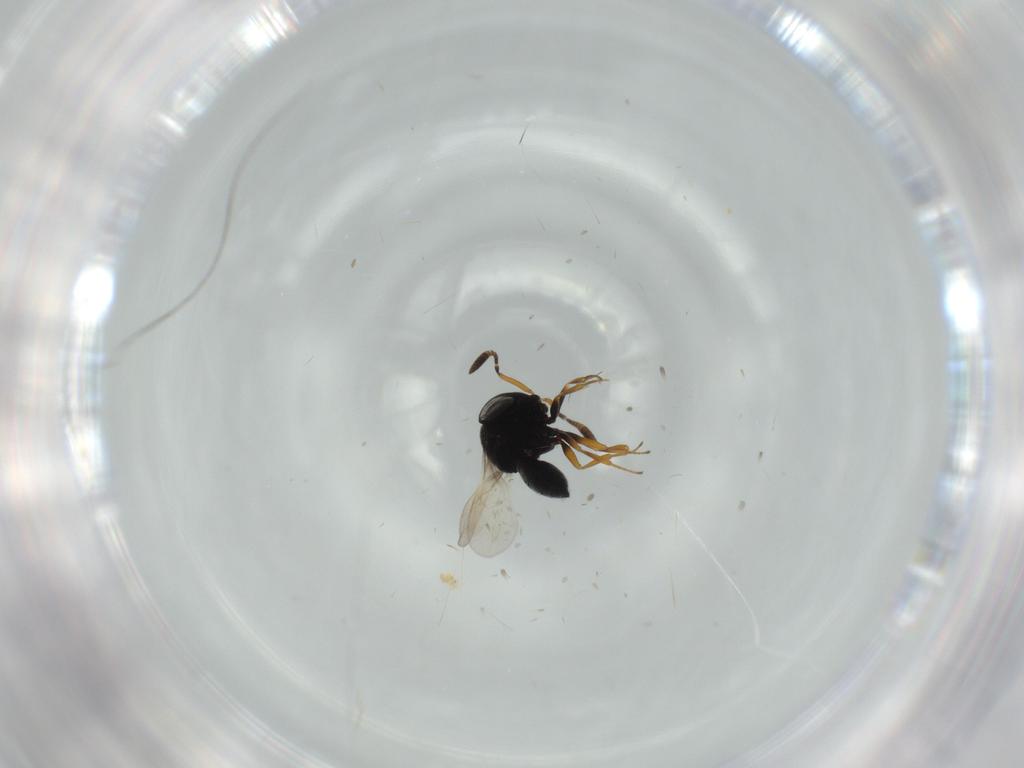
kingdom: Animalia
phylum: Arthropoda
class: Insecta
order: Hymenoptera
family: Scelionidae
